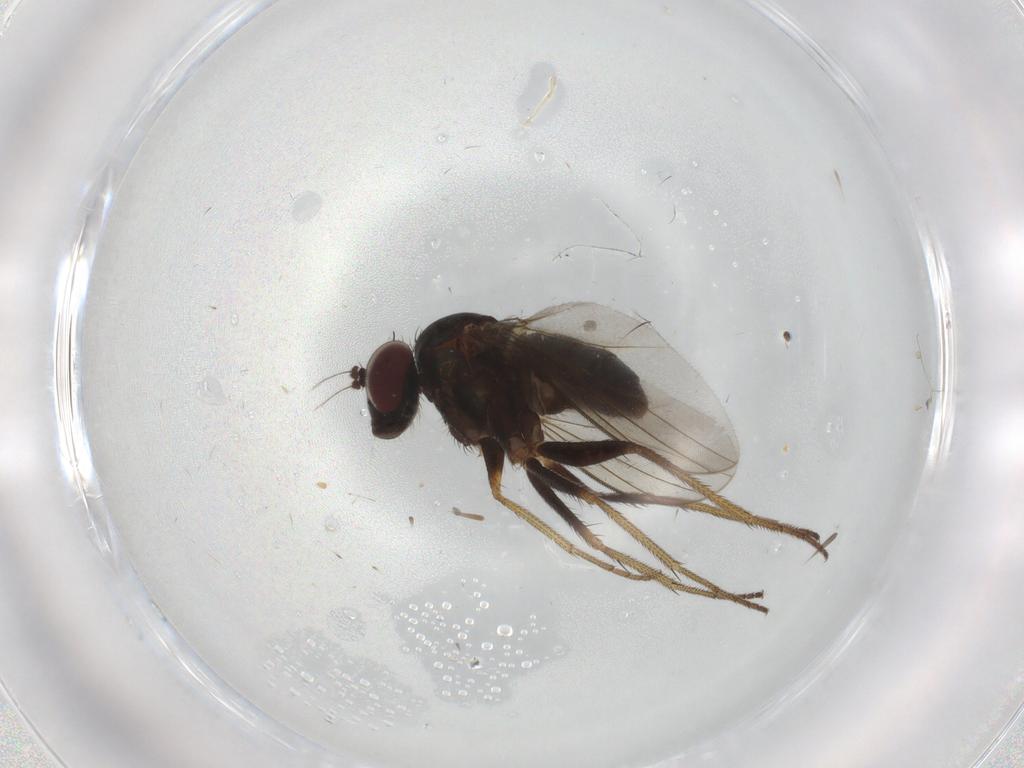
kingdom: Animalia
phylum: Arthropoda
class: Insecta
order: Diptera
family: Dolichopodidae
